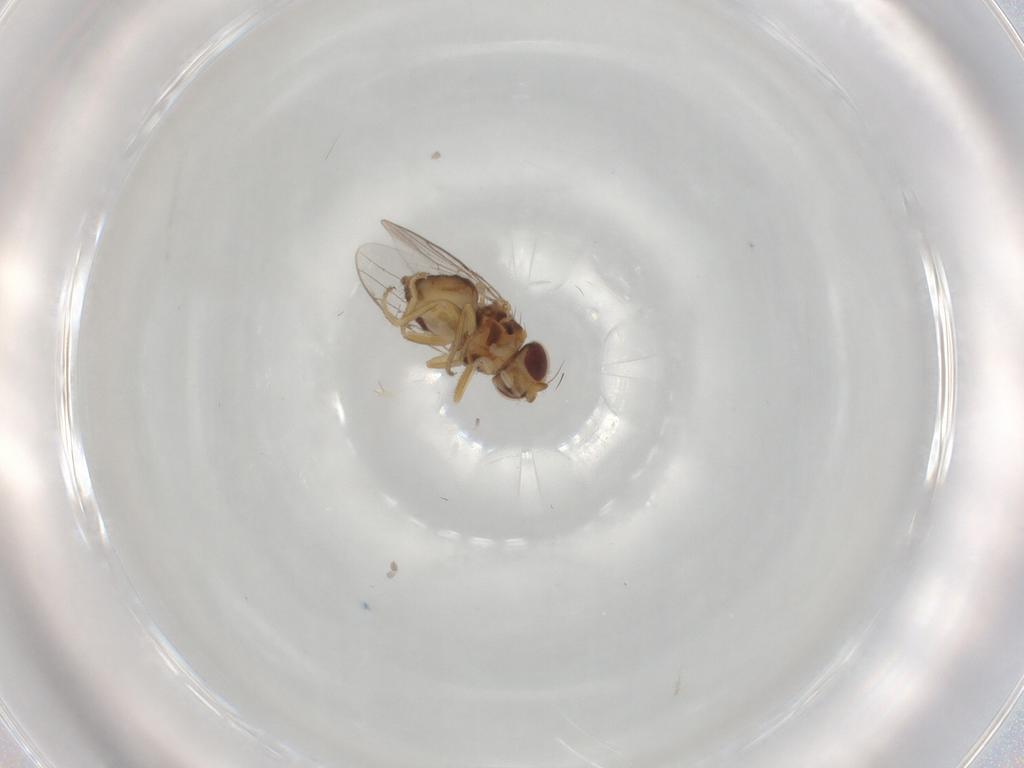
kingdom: Animalia
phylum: Arthropoda
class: Insecta
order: Diptera
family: Chloropidae
